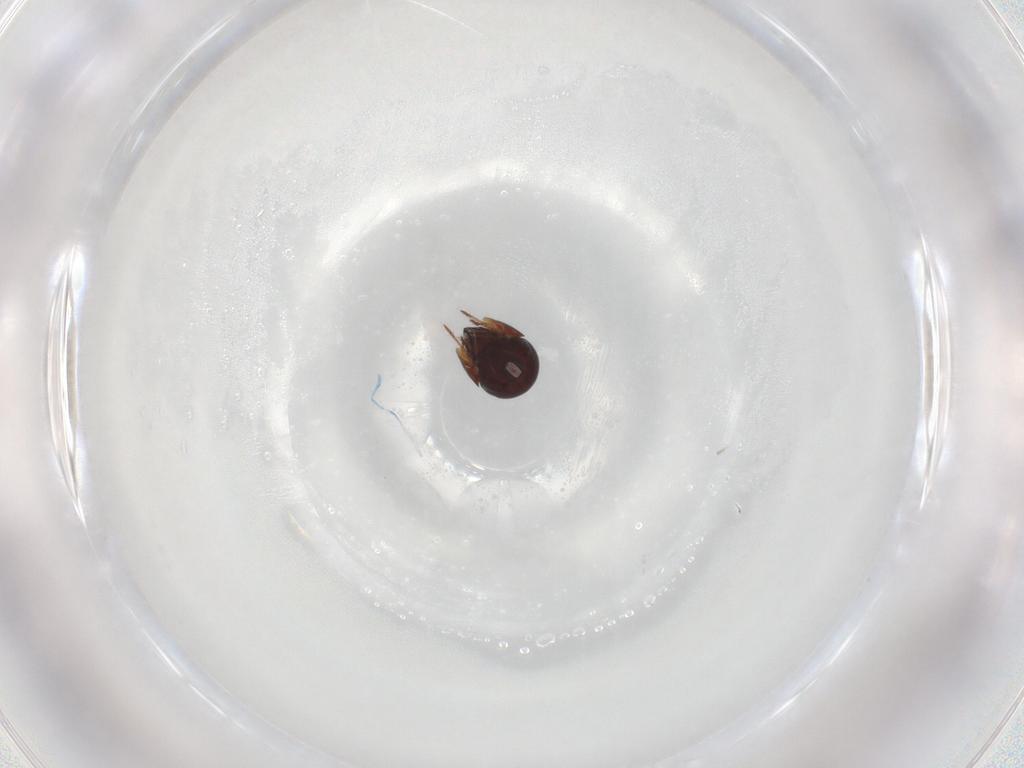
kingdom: Animalia
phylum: Arthropoda
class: Arachnida
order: Sarcoptiformes
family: Ceratozetidae
